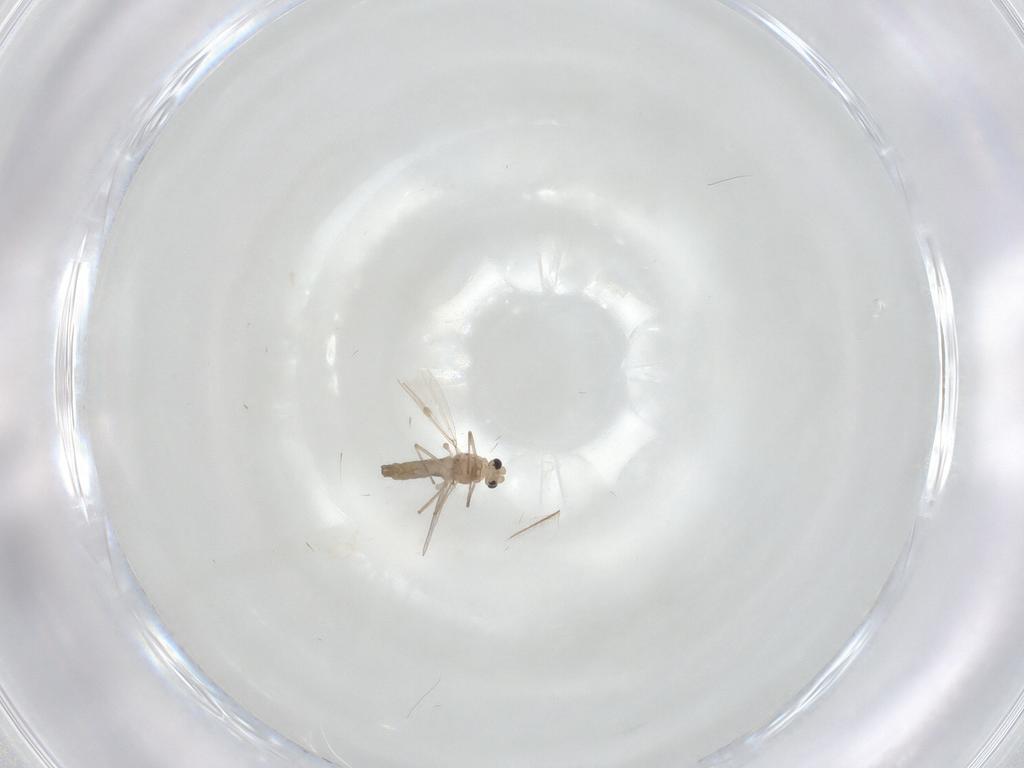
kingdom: Animalia
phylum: Arthropoda
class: Insecta
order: Diptera
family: Chironomidae
